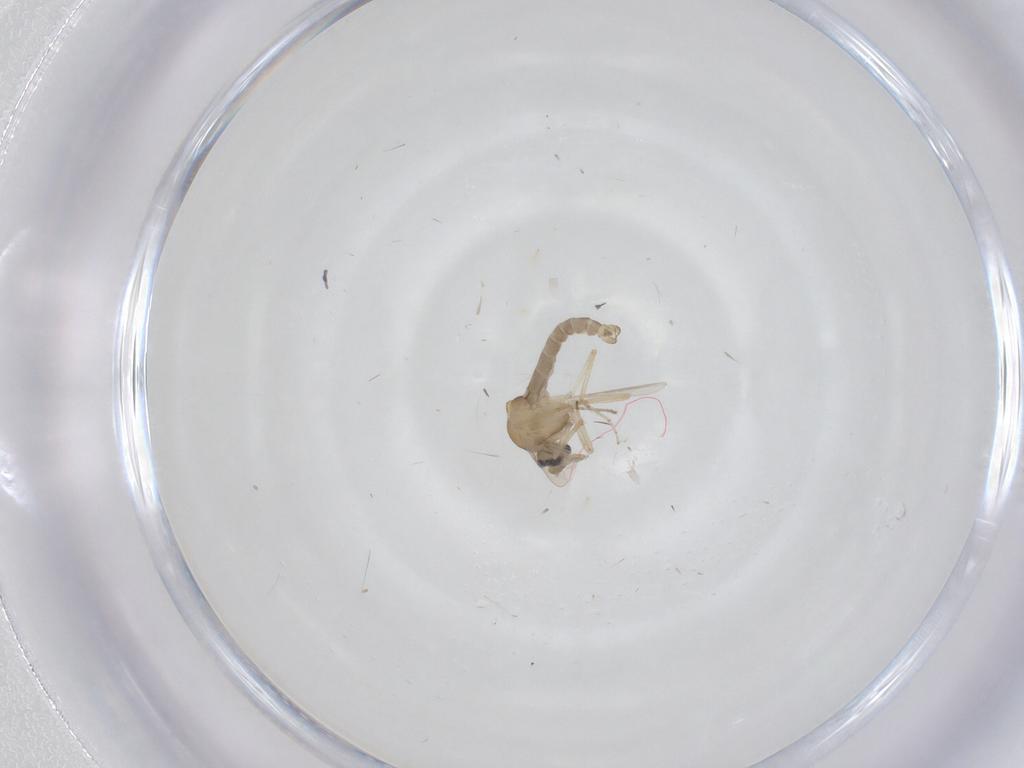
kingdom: Animalia
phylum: Arthropoda
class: Insecta
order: Diptera
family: Ceratopogonidae
